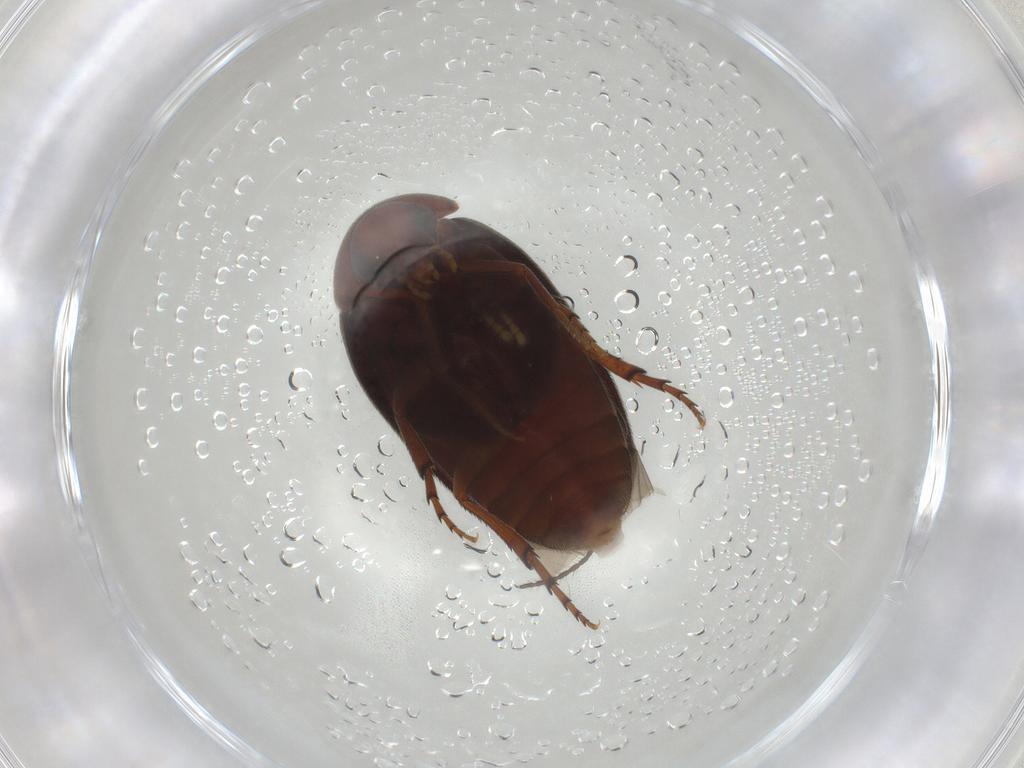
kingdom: Animalia
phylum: Arthropoda
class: Insecta
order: Coleoptera
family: Eucinetidae
